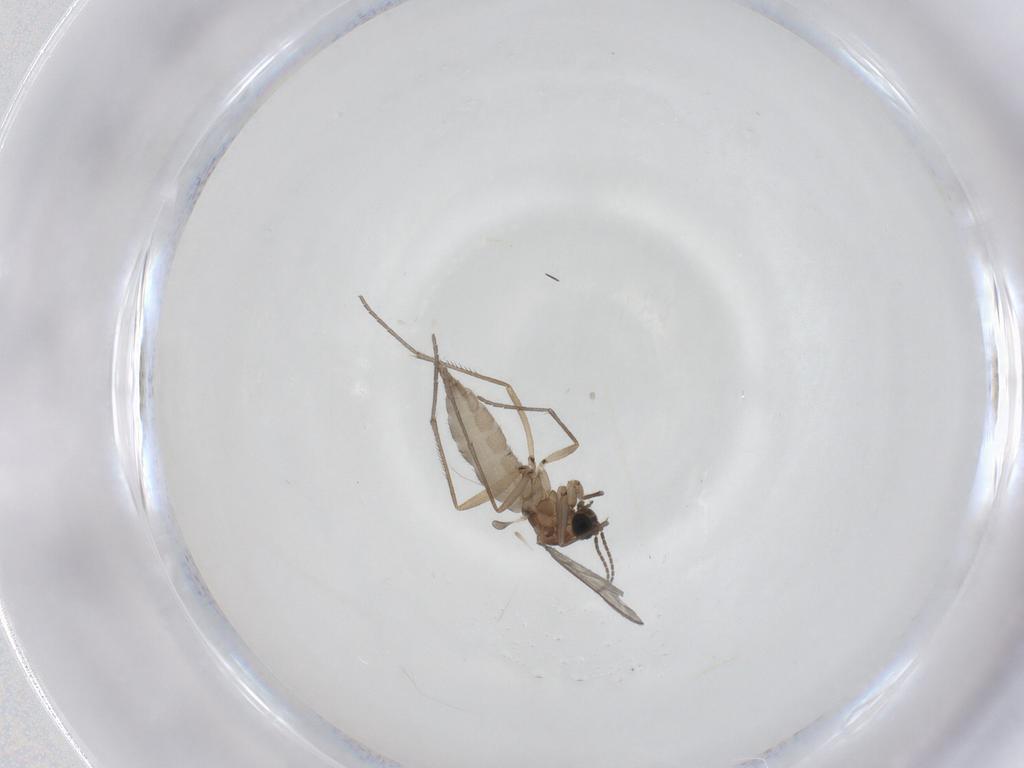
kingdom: Animalia
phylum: Arthropoda
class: Insecta
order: Diptera
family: Sciaridae
